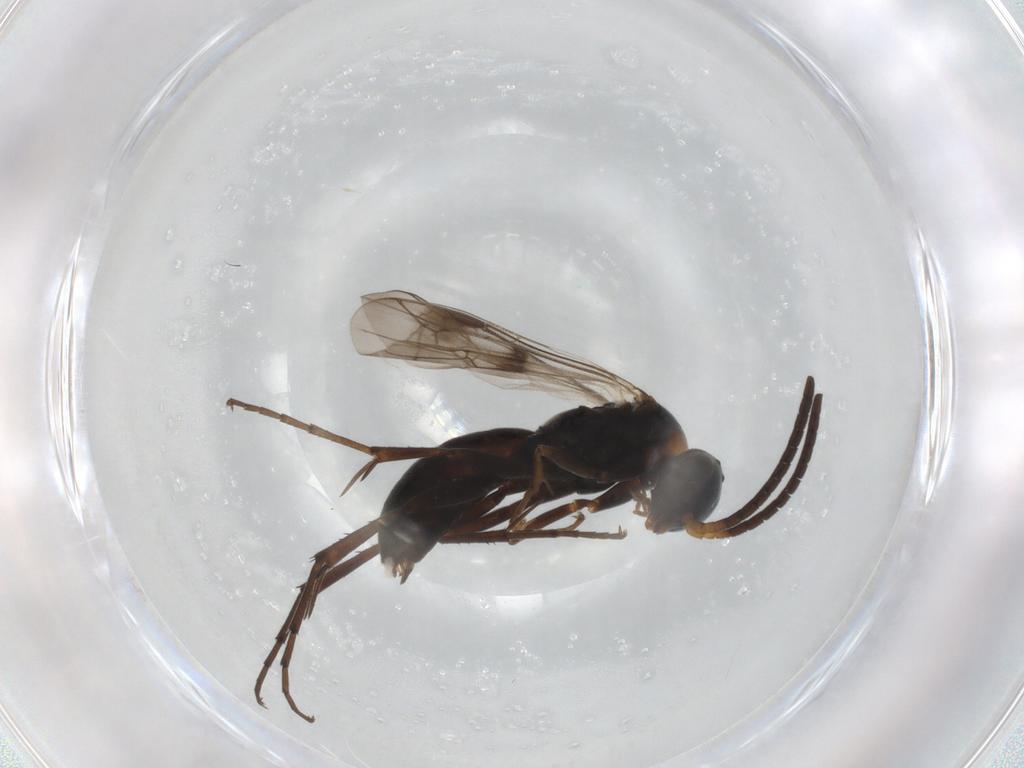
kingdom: Animalia
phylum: Arthropoda
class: Insecta
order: Hymenoptera
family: Pompilidae
